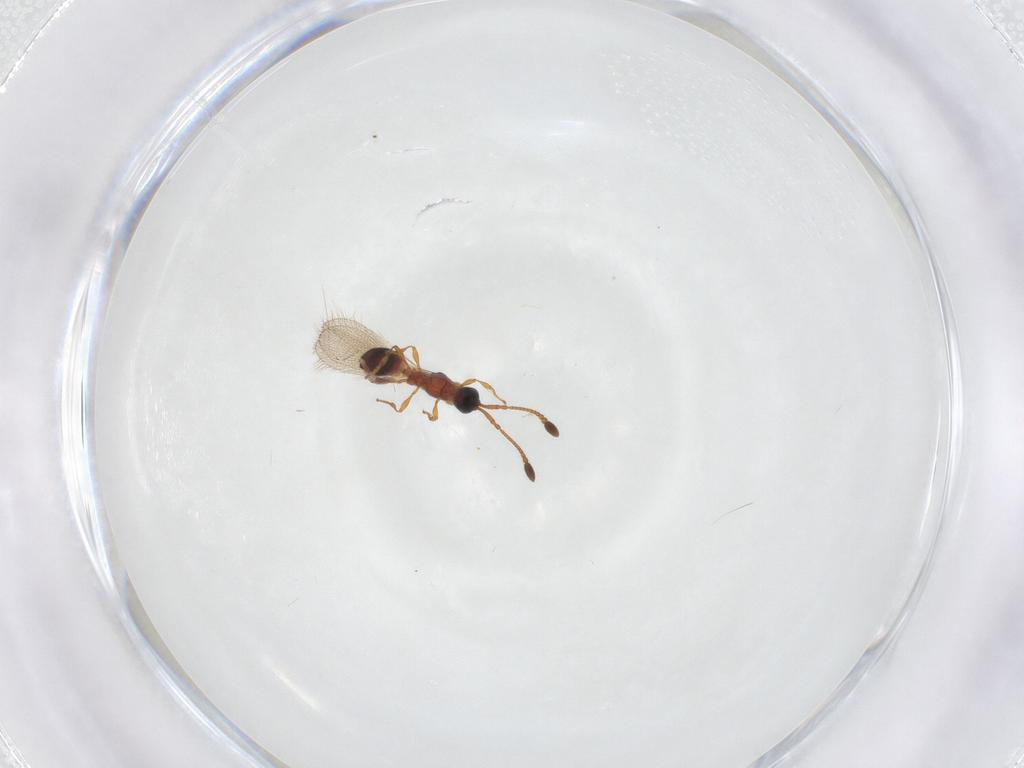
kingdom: Animalia
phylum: Arthropoda
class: Insecta
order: Hymenoptera
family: Diapriidae
